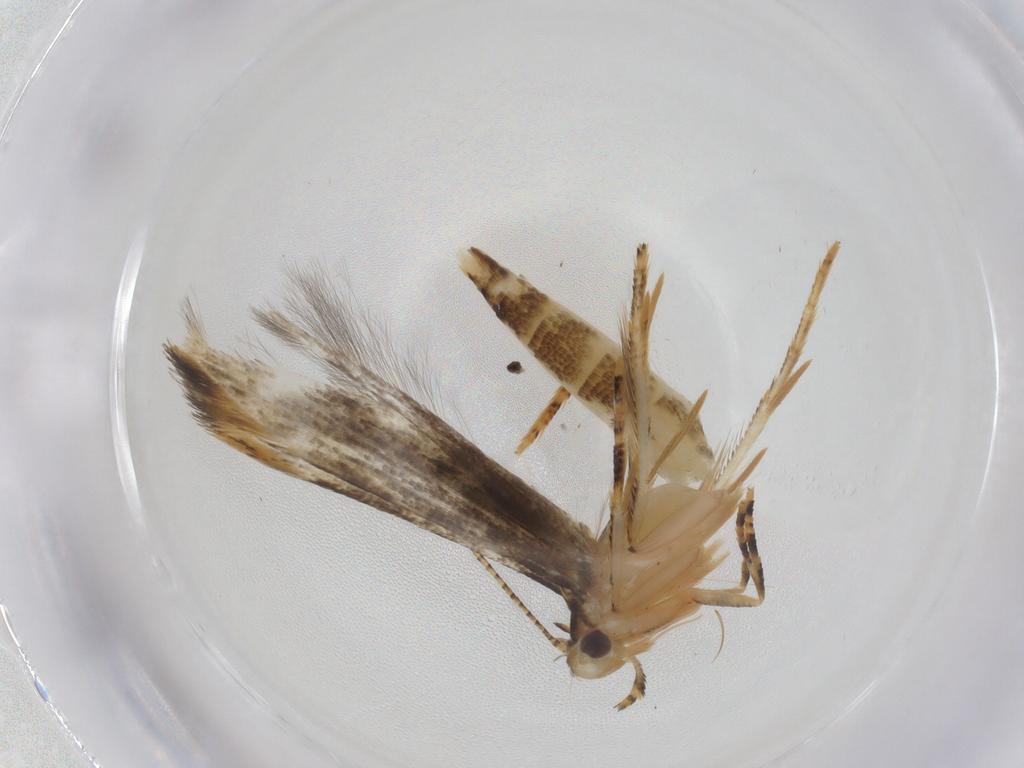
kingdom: Animalia
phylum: Arthropoda
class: Insecta
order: Lepidoptera
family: Erebidae
